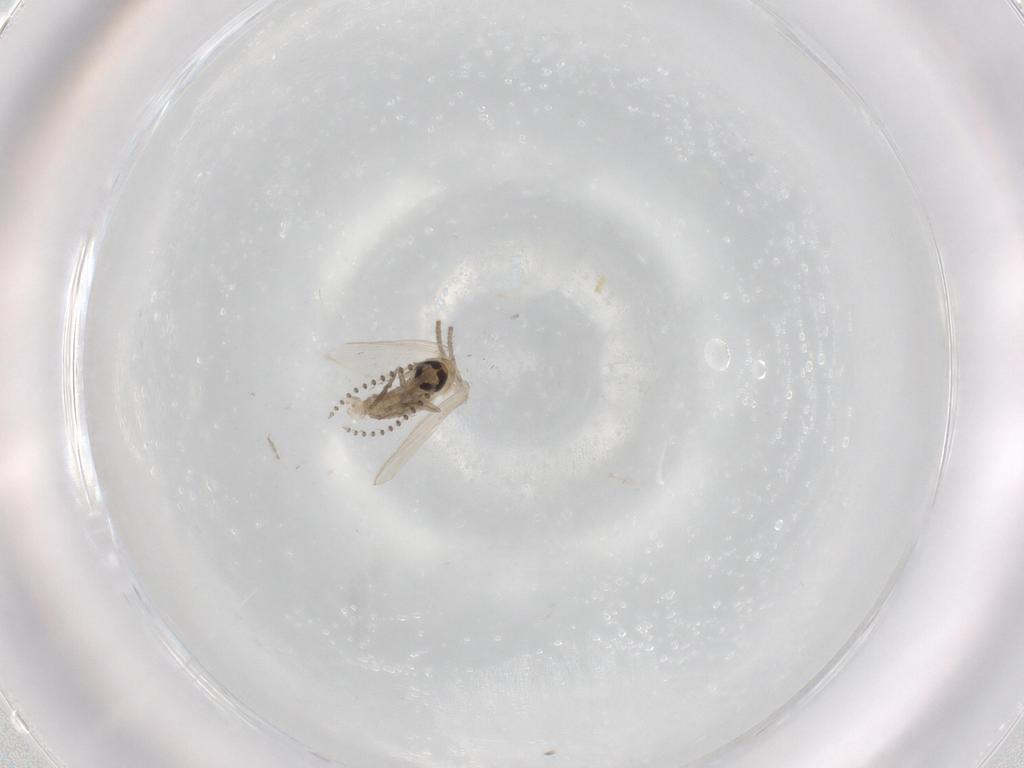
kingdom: Animalia
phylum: Arthropoda
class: Insecta
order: Diptera
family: Psychodidae
